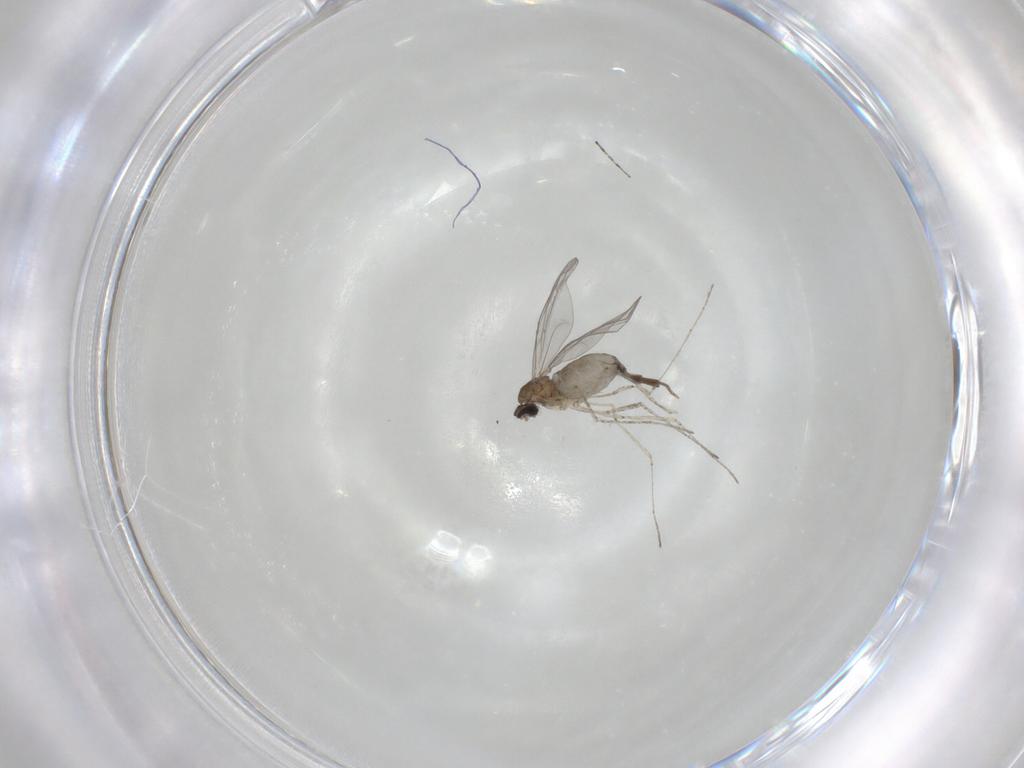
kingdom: Animalia
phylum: Arthropoda
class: Insecta
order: Diptera
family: Cecidomyiidae
